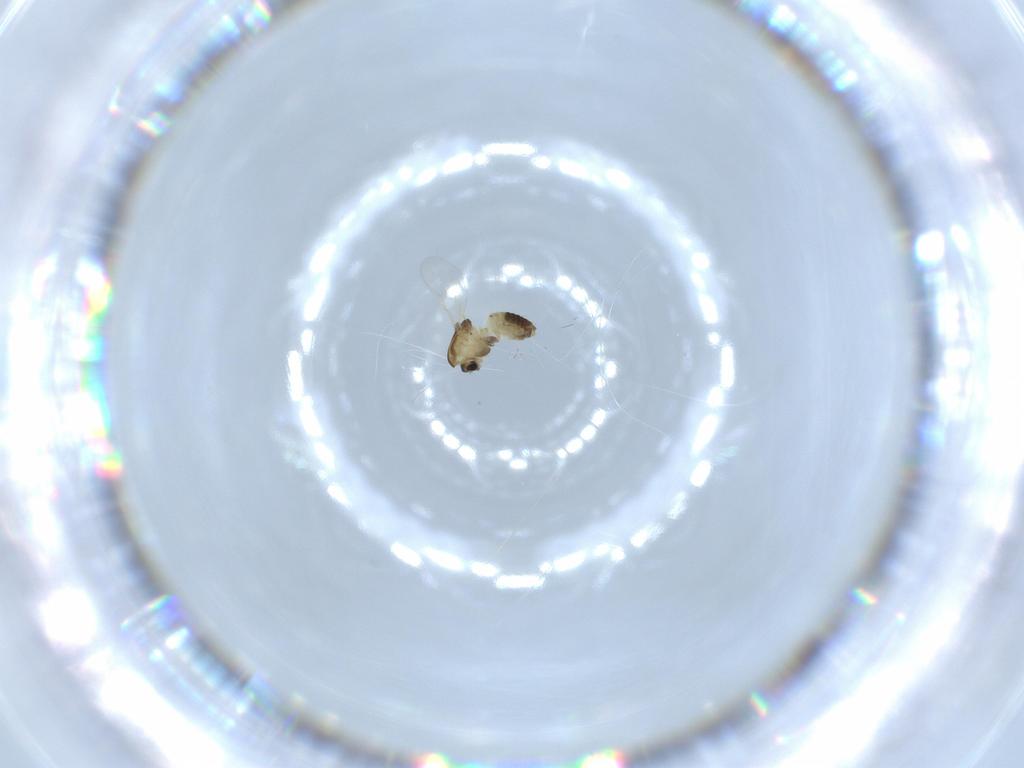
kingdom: Animalia
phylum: Arthropoda
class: Insecta
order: Diptera
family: Chironomidae
